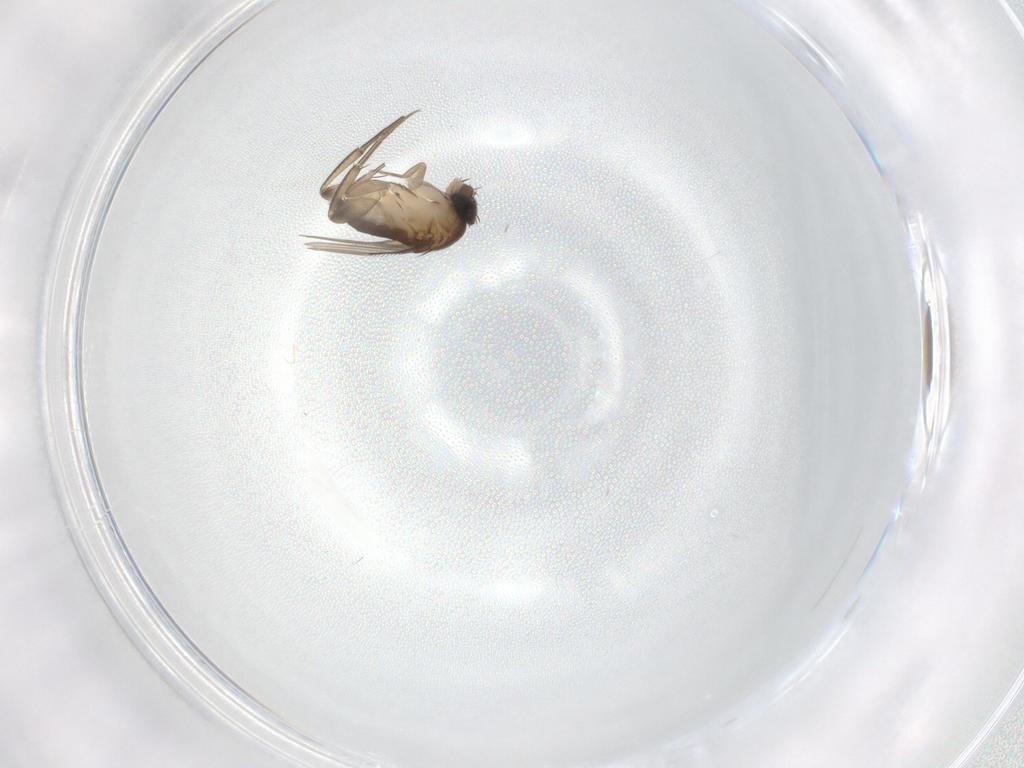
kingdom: Animalia
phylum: Arthropoda
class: Insecta
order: Diptera
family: Phoridae
